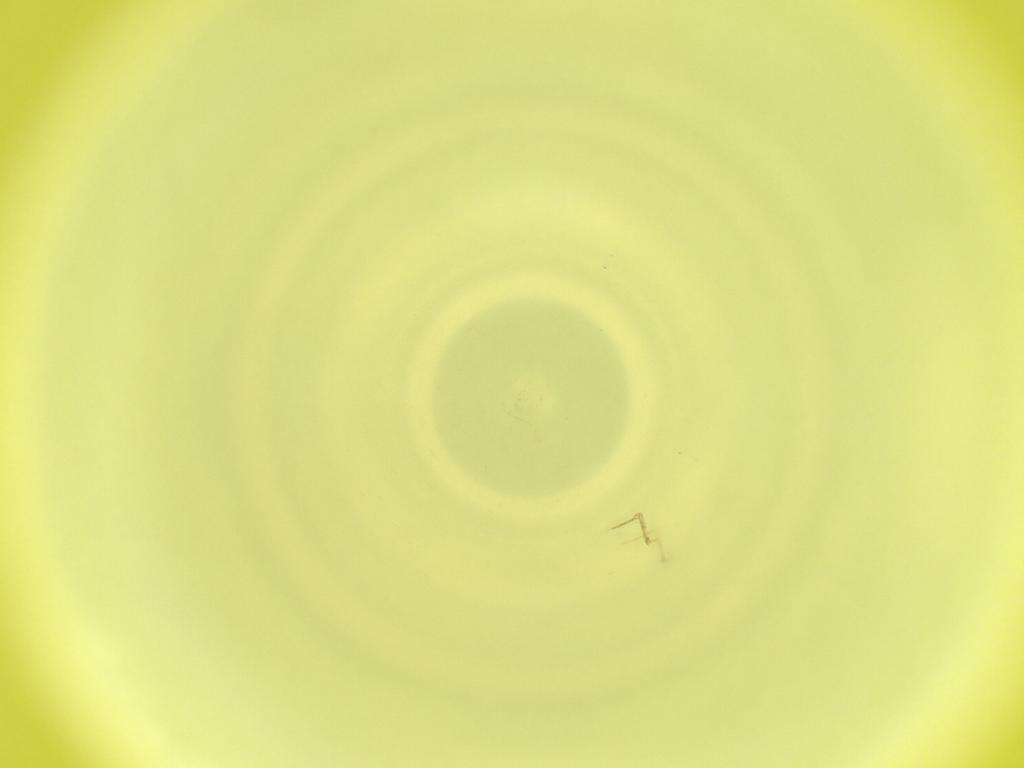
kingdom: Animalia
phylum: Arthropoda
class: Insecta
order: Diptera
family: Cecidomyiidae
